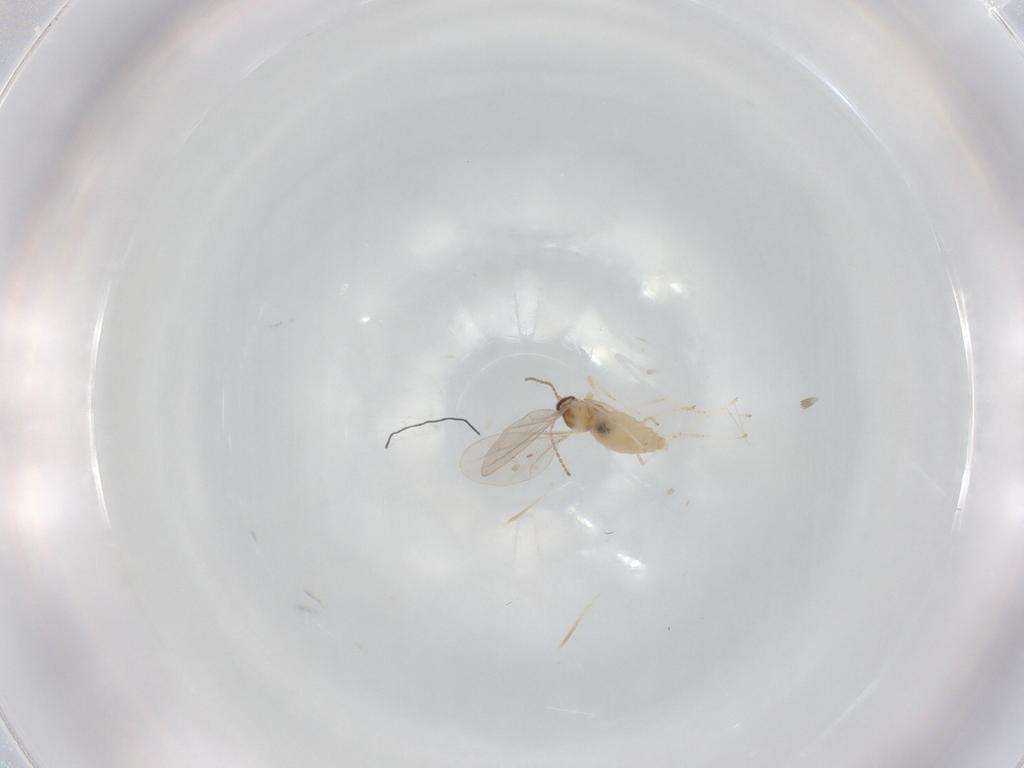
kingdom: Animalia
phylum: Arthropoda
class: Insecta
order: Diptera
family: Cecidomyiidae
